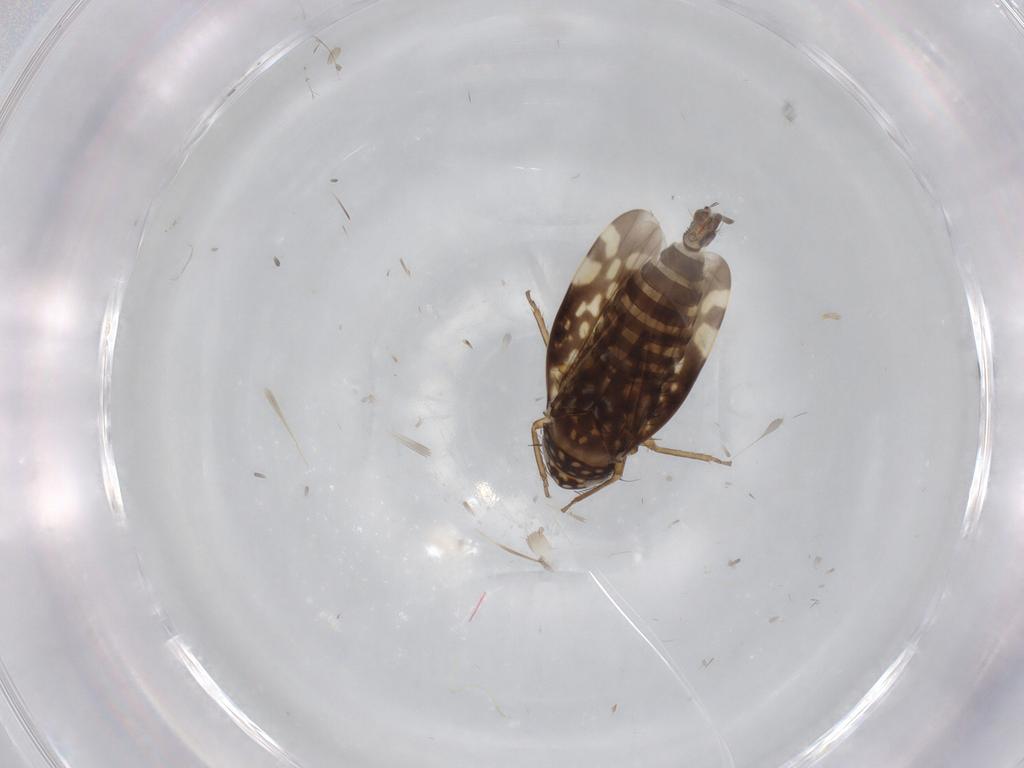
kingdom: Animalia
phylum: Arthropoda
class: Insecta
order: Hemiptera
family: Cicadellidae
